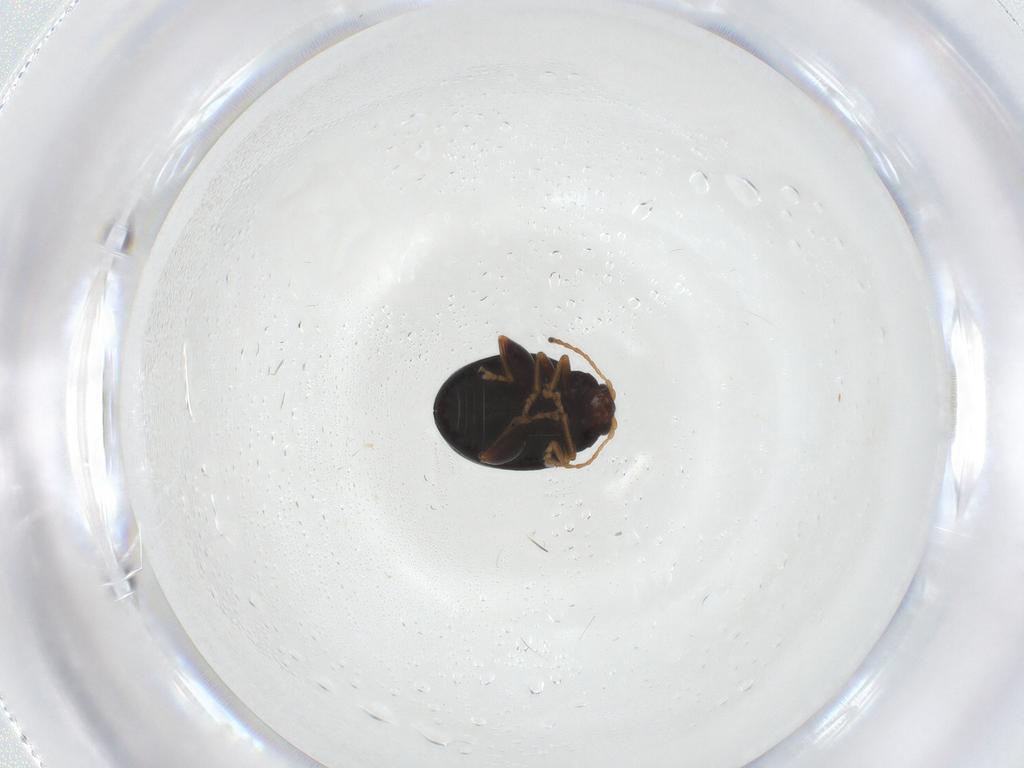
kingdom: Animalia
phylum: Arthropoda
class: Insecta
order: Coleoptera
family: Chrysomelidae
